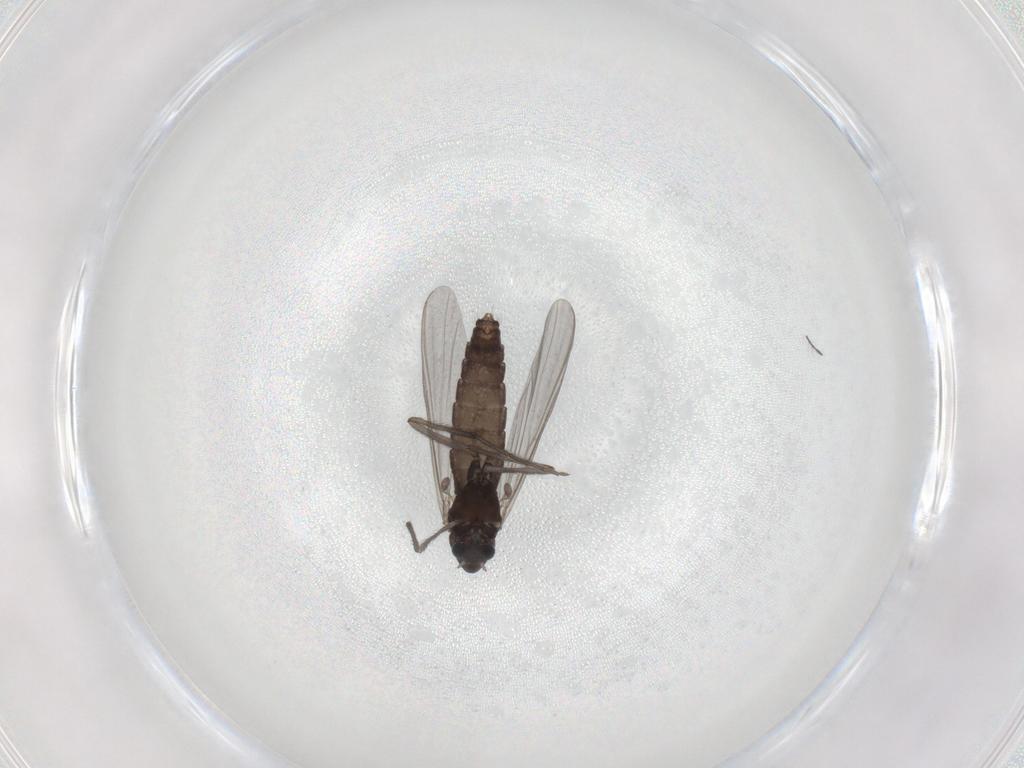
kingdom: Animalia
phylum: Arthropoda
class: Insecta
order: Diptera
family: Chironomidae
